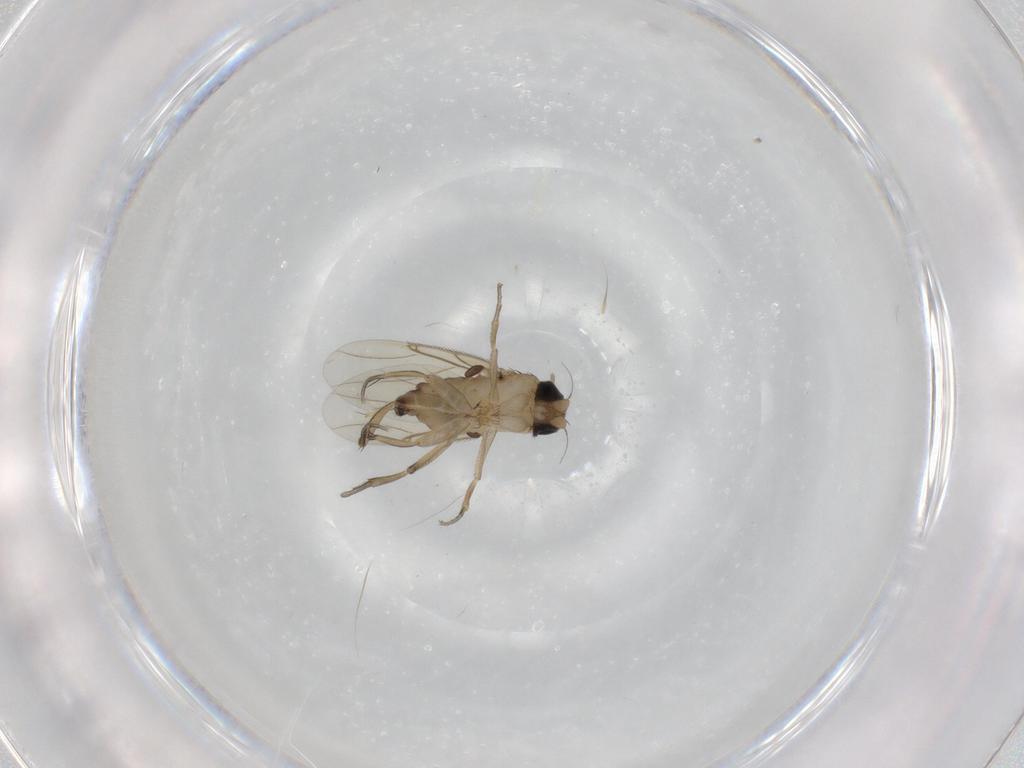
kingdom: Animalia
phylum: Arthropoda
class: Insecta
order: Diptera
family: Phoridae
